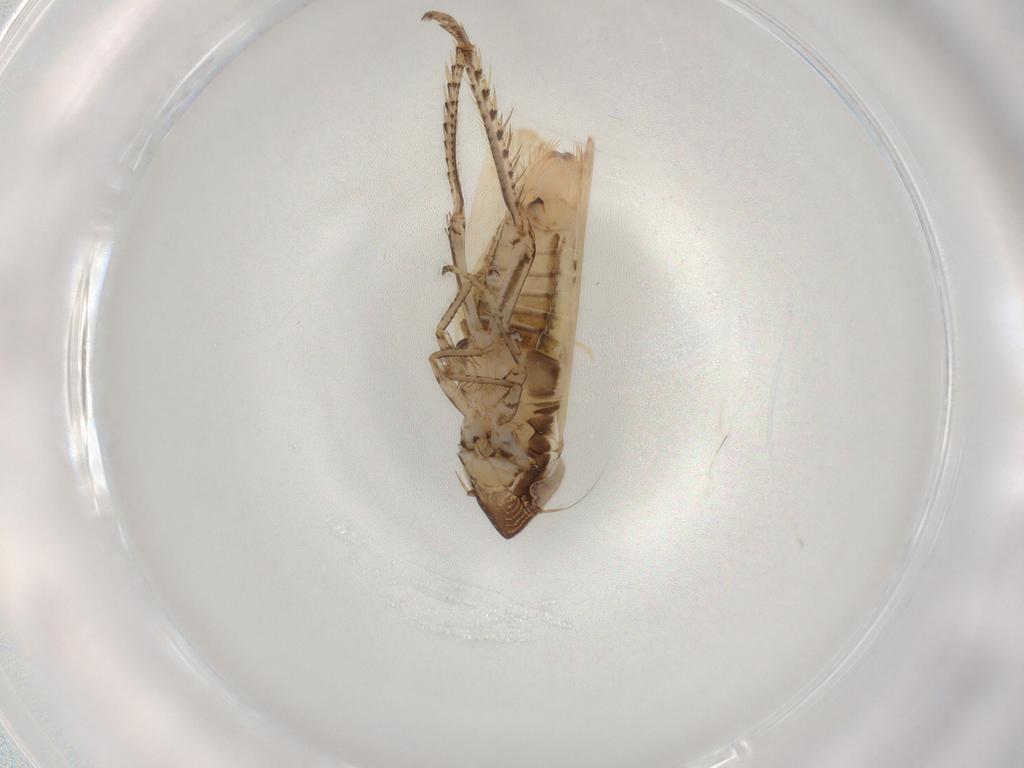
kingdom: Animalia
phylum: Arthropoda
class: Insecta
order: Hemiptera
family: Cicadellidae
